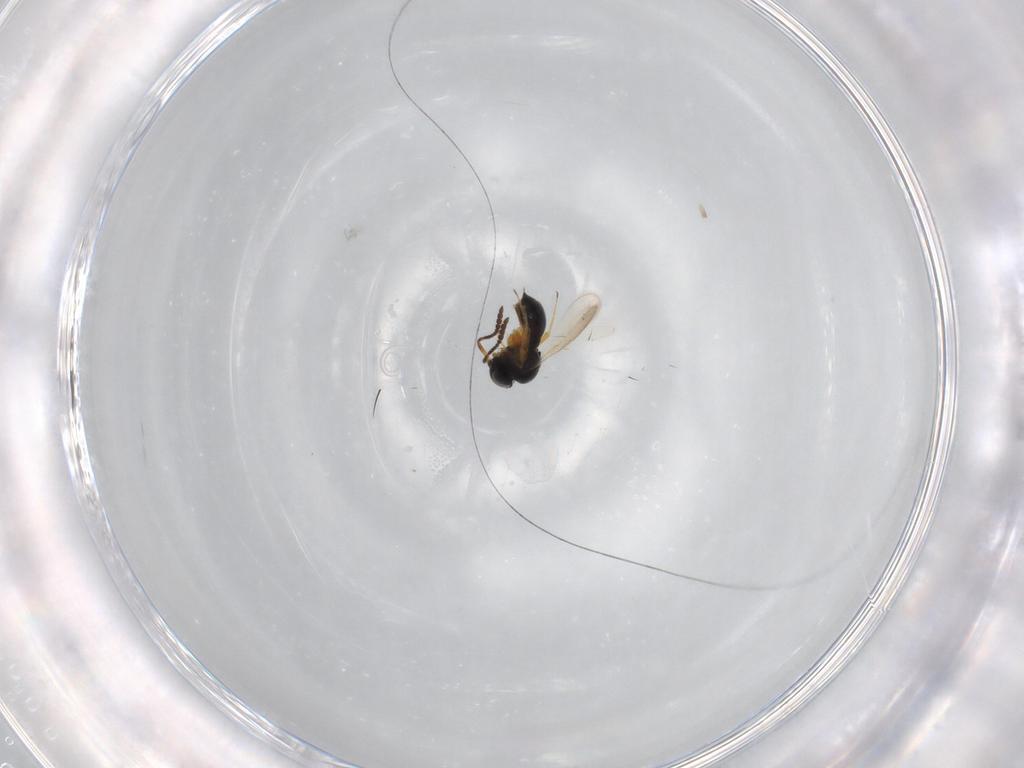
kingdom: Animalia
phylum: Arthropoda
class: Insecta
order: Hymenoptera
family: Scelionidae
